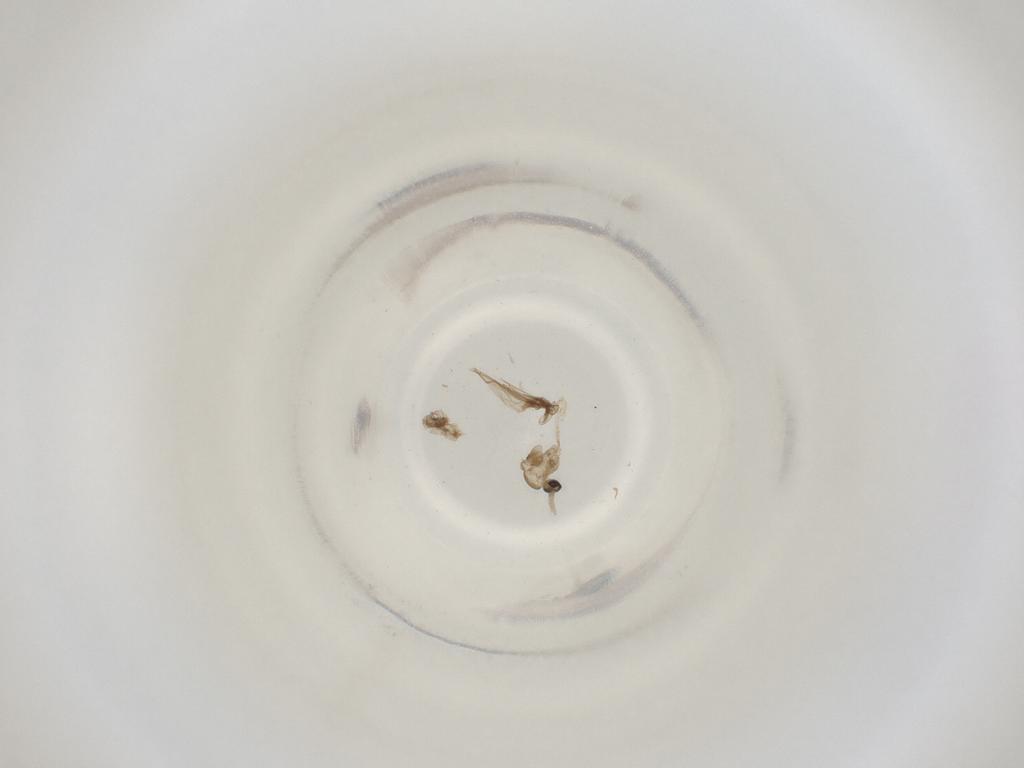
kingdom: Animalia
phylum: Arthropoda
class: Insecta
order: Diptera
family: Cecidomyiidae
